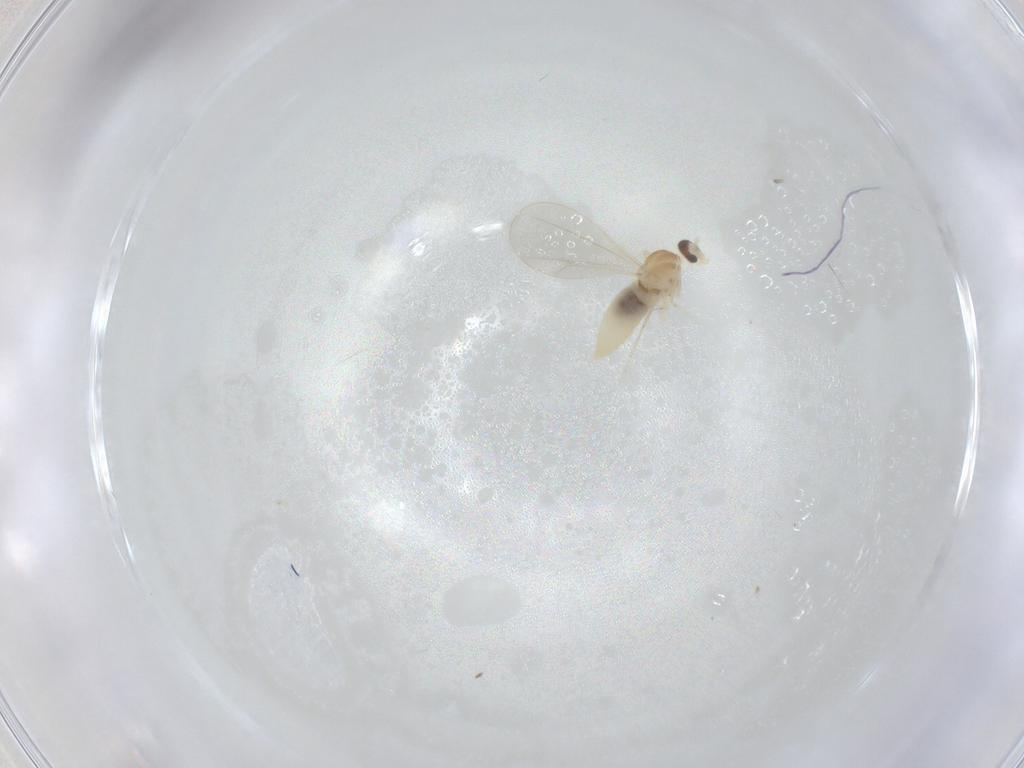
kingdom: Animalia
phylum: Arthropoda
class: Insecta
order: Diptera
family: Cecidomyiidae
